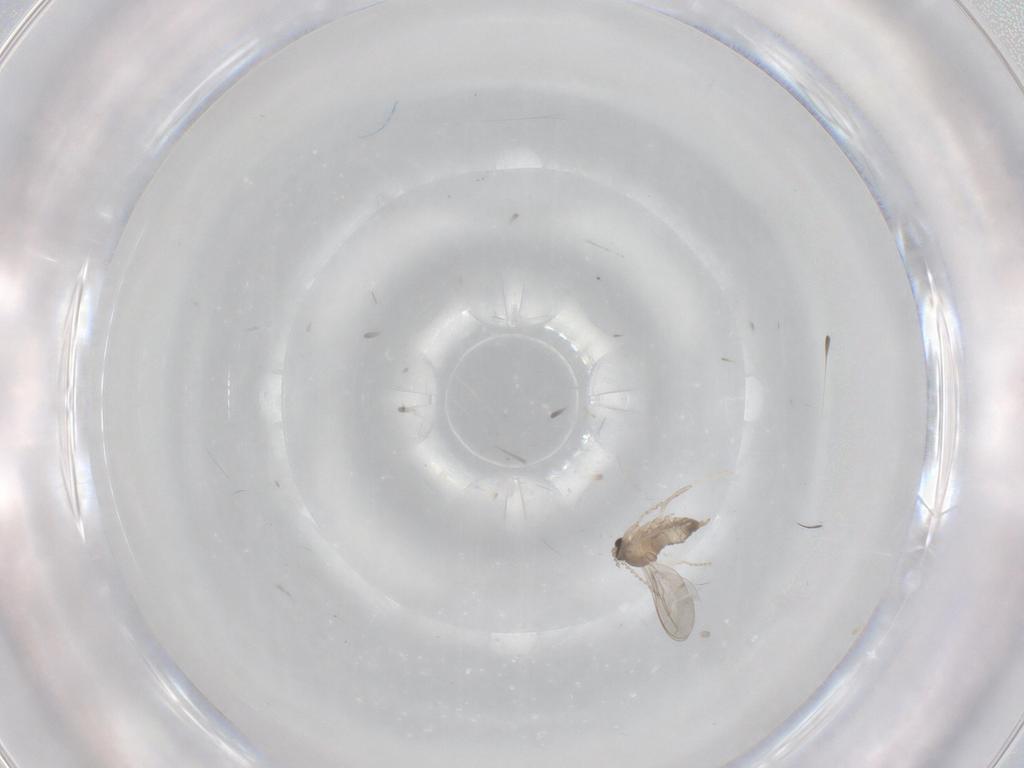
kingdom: Animalia
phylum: Arthropoda
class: Insecta
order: Diptera
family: Cecidomyiidae
